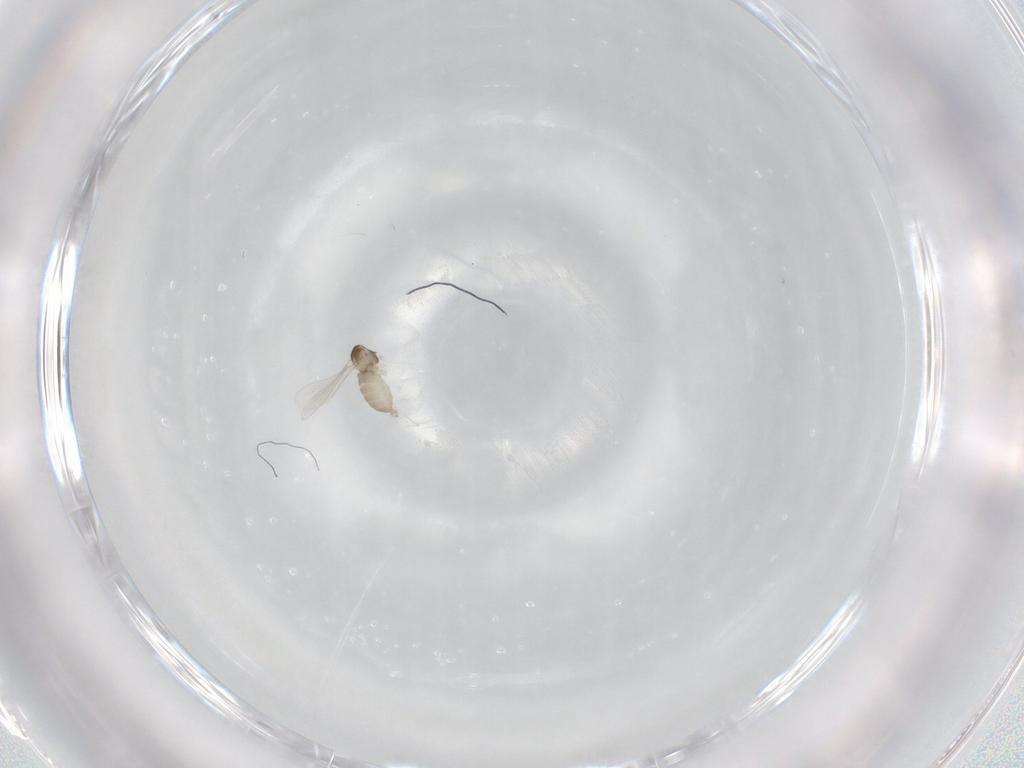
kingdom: Animalia
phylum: Arthropoda
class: Insecta
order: Diptera
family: Cecidomyiidae
